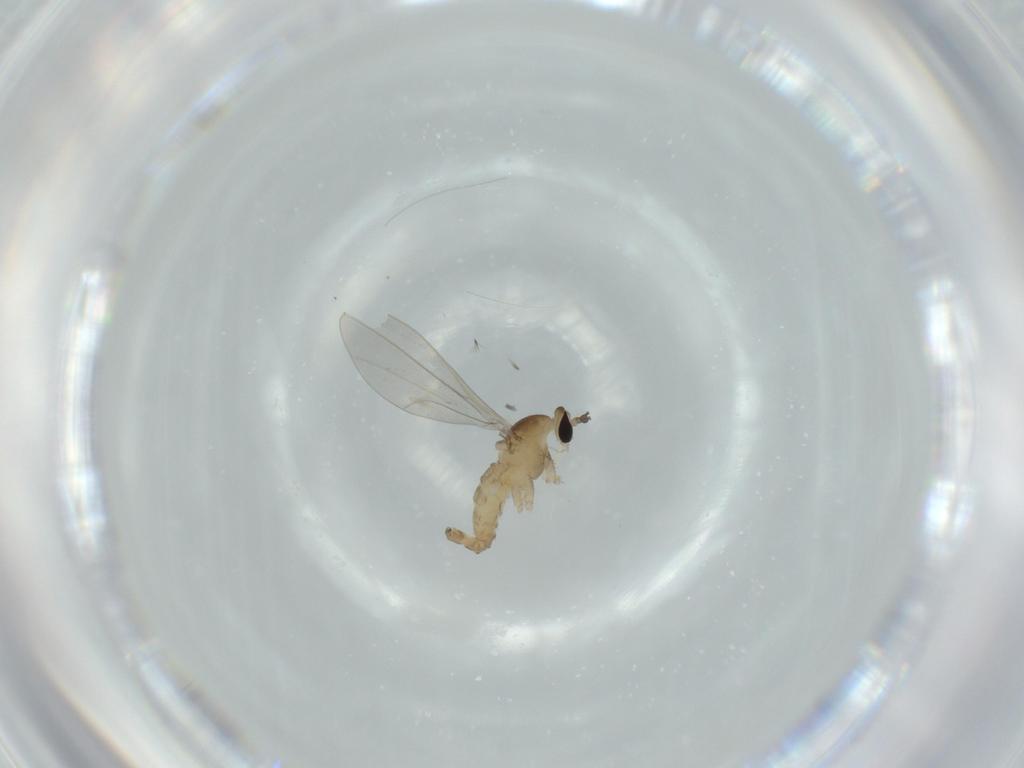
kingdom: Animalia
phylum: Arthropoda
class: Insecta
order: Diptera
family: Cecidomyiidae
